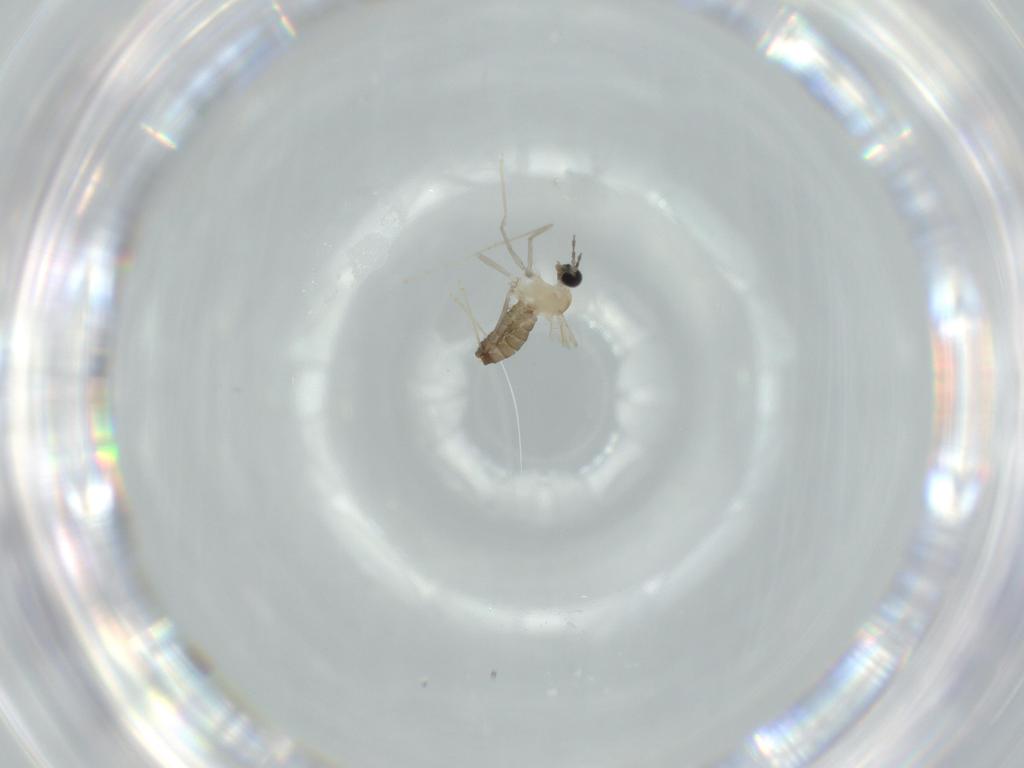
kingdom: Animalia
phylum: Arthropoda
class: Insecta
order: Diptera
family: Cecidomyiidae
